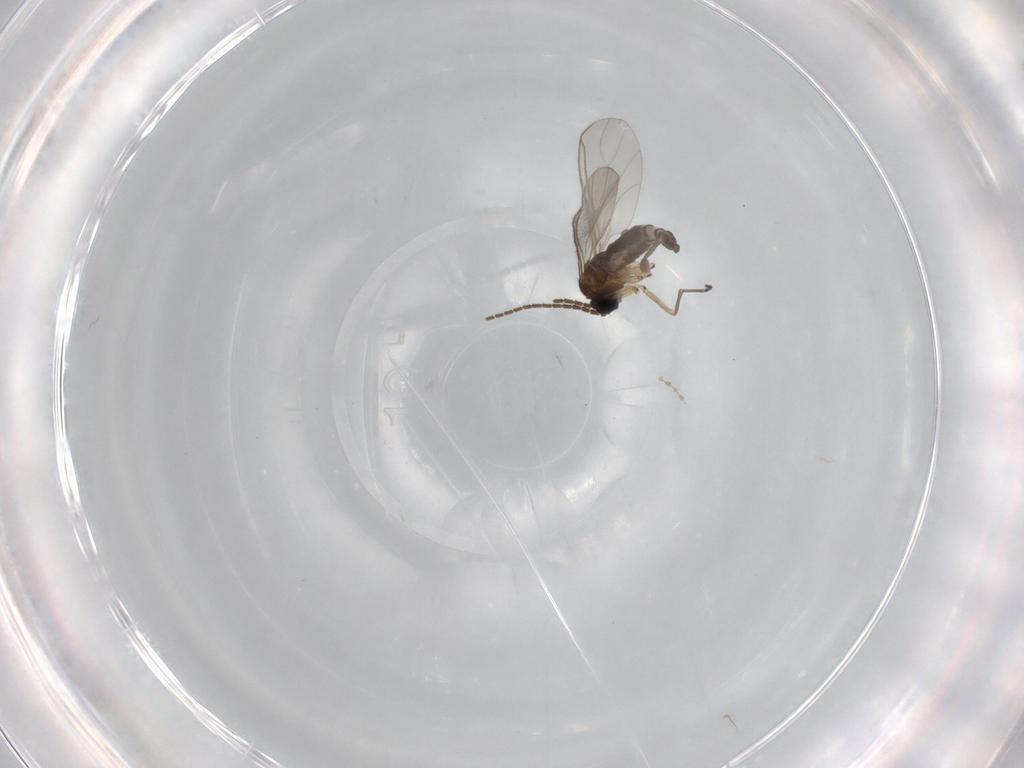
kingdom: Animalia
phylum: Arthropoda
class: Insecta
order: Diptera
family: Sciaridae
